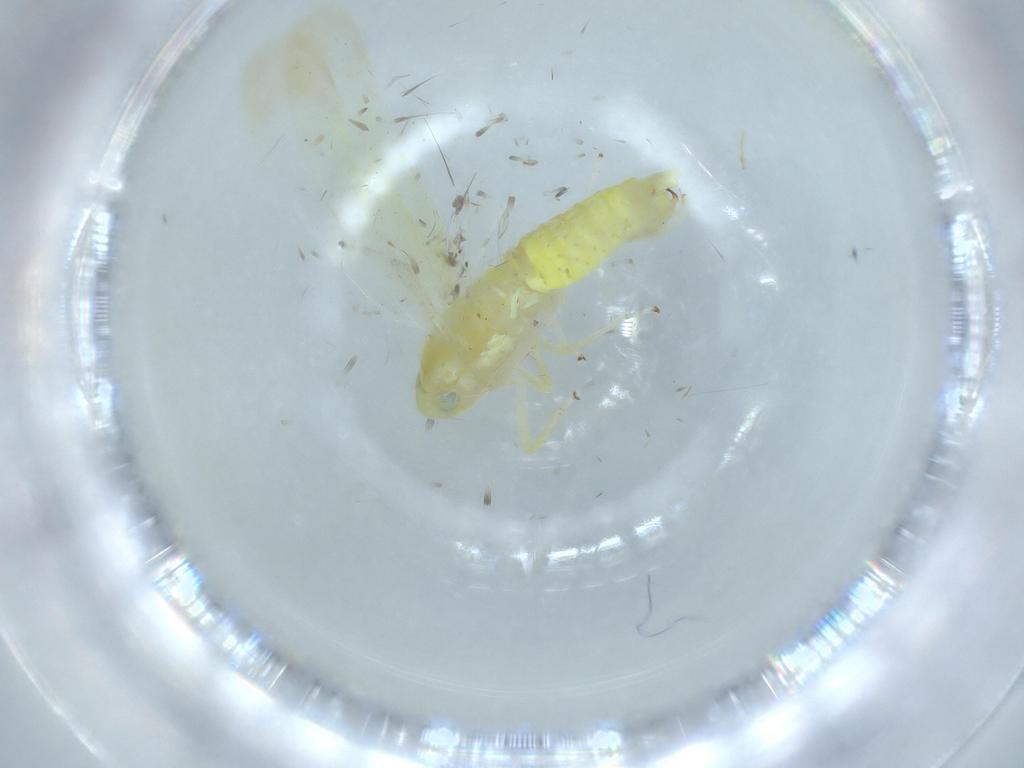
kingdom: Animalia
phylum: Arthropoda
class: Insecta
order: Hemiptera
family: Cicadellidae
